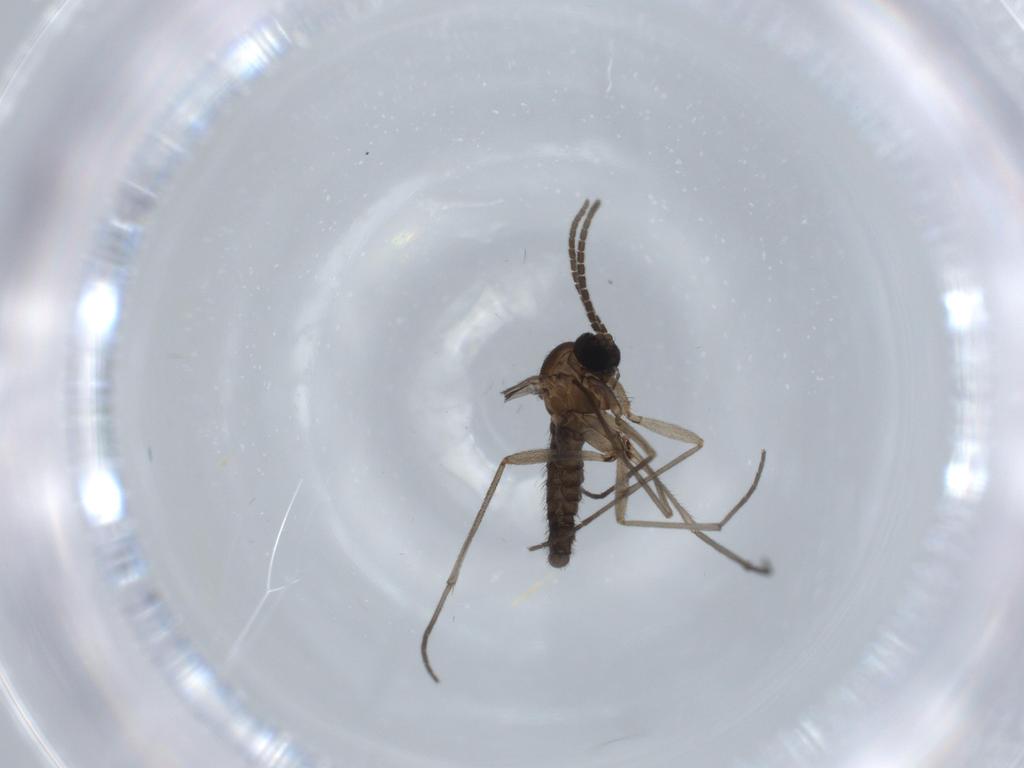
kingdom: Animalia
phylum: Arthropoda
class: Insecta
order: Diptera
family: Sciaridae
